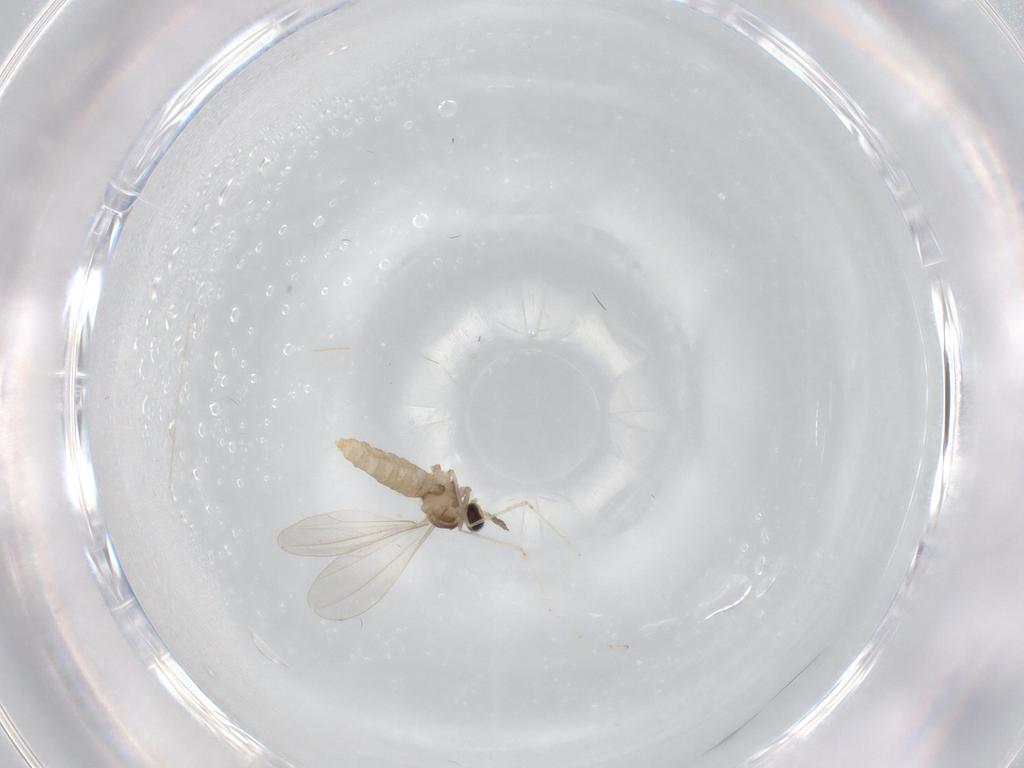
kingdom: Animalia
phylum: Arthropoda
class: Insecta
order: Diptera
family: Cecidomyiidae
